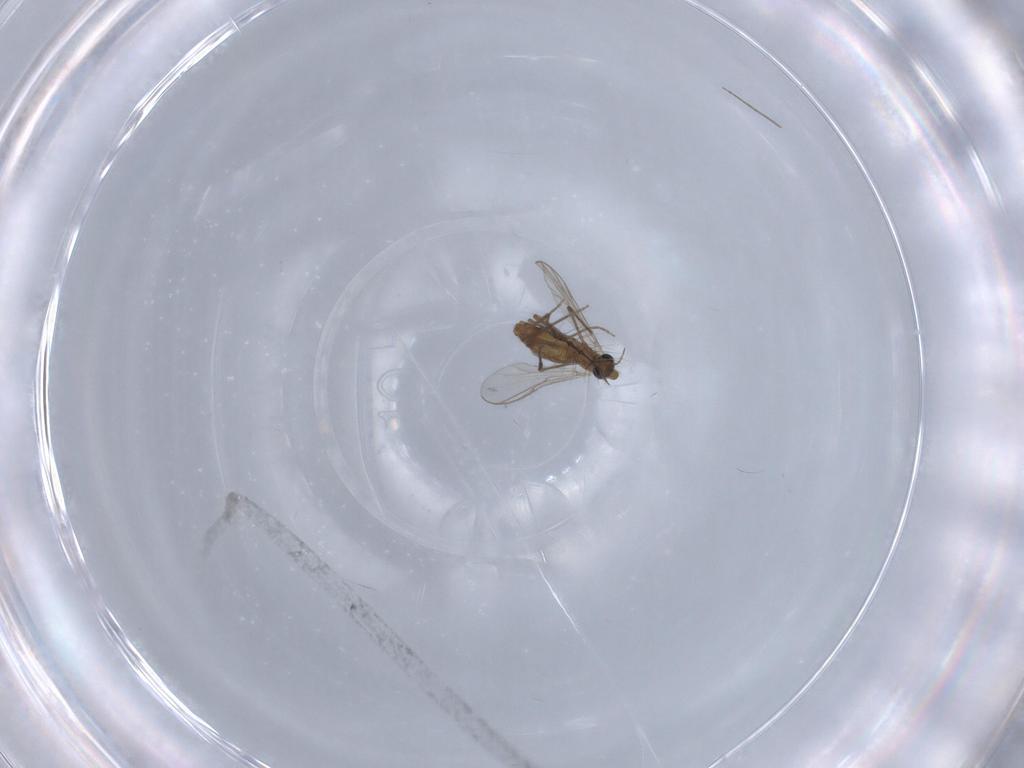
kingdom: Animalia
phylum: Arthropoda
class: Insecta
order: Diptera
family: Chironomidae
